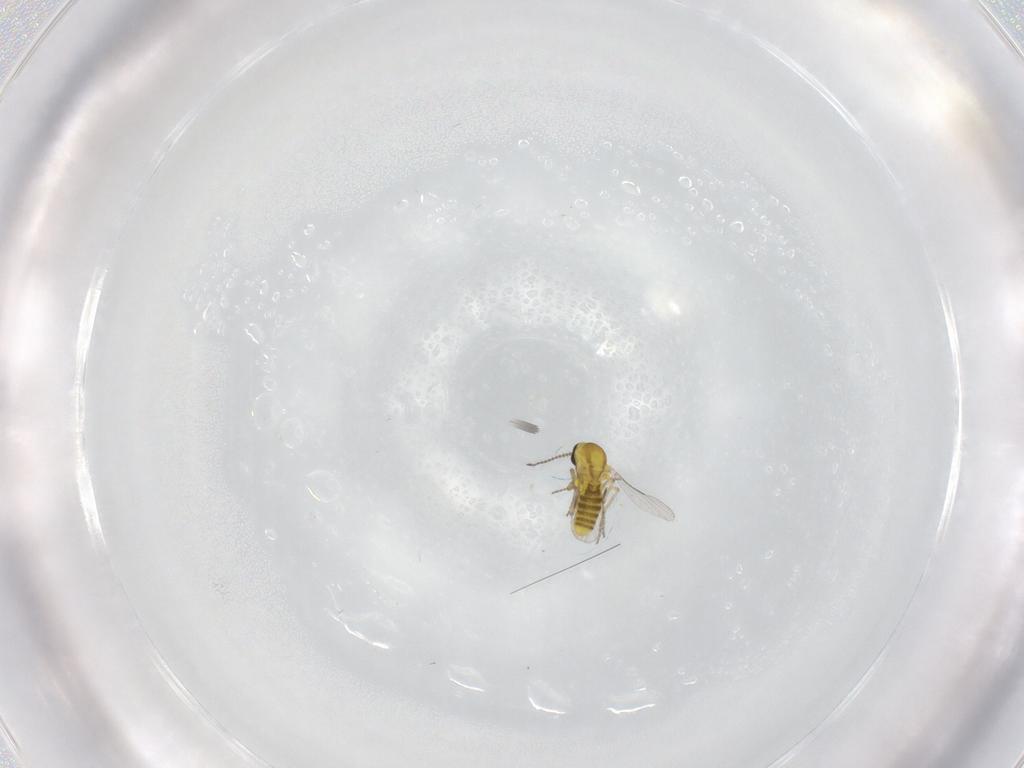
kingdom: Animalia
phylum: Arthropoda
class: Insecta
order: Diptera
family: Ceratopogonidae
